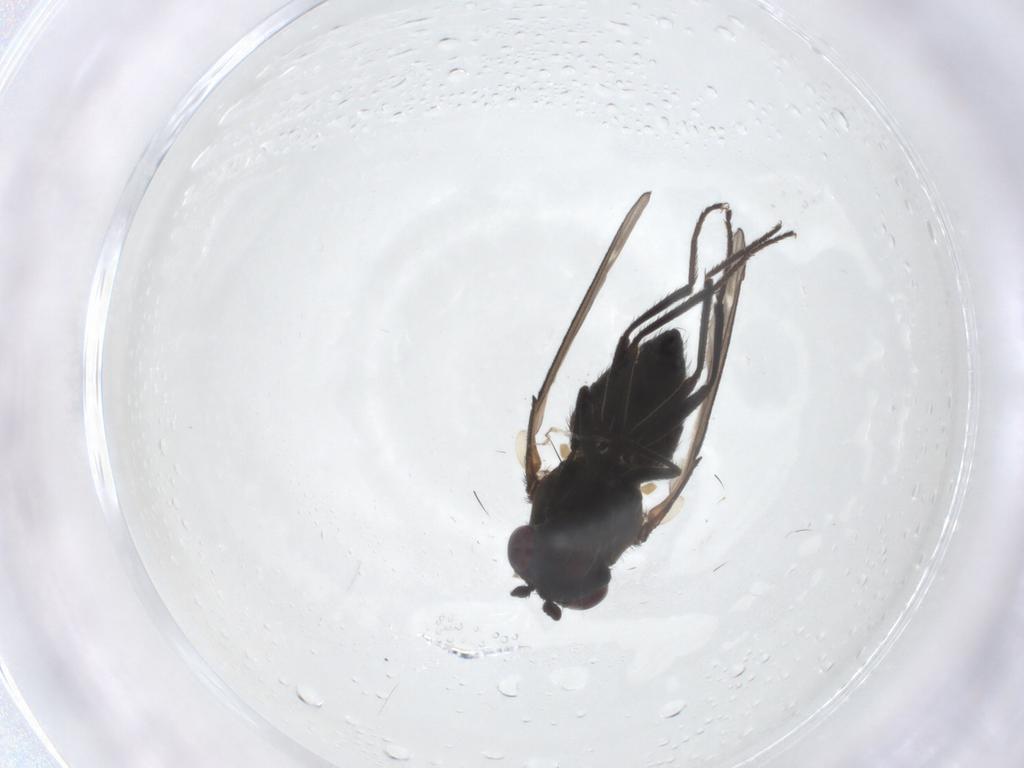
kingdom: Animalia
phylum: Arthropoda
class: Insecta
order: Diptera
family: Ephydridae
